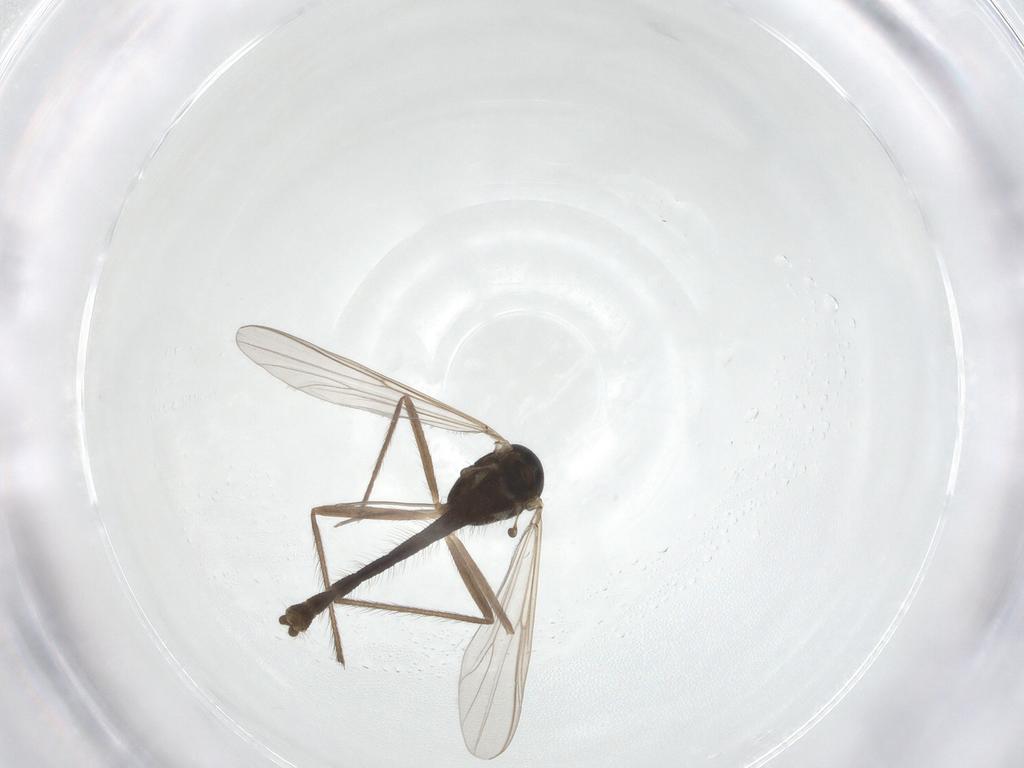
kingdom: Animalia
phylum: Arthropoda
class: Insecta
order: Diptera
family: Chironomidae
